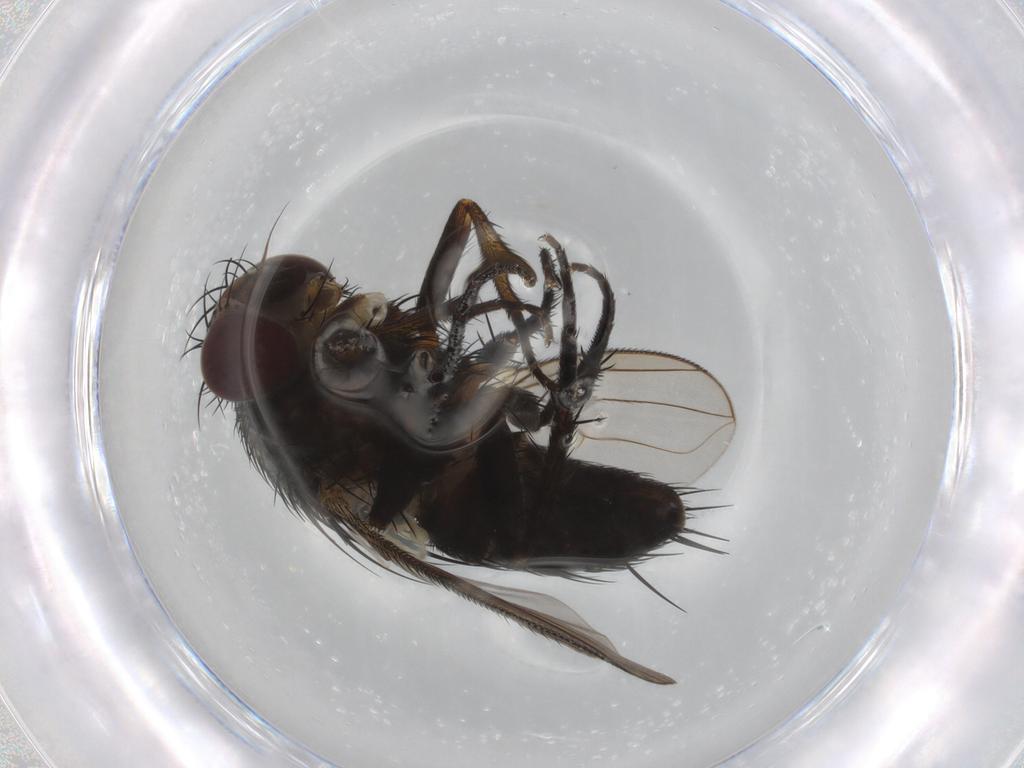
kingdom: Animalia
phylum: Arthropoda
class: Insecta
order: Diptera
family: Tachinidae
